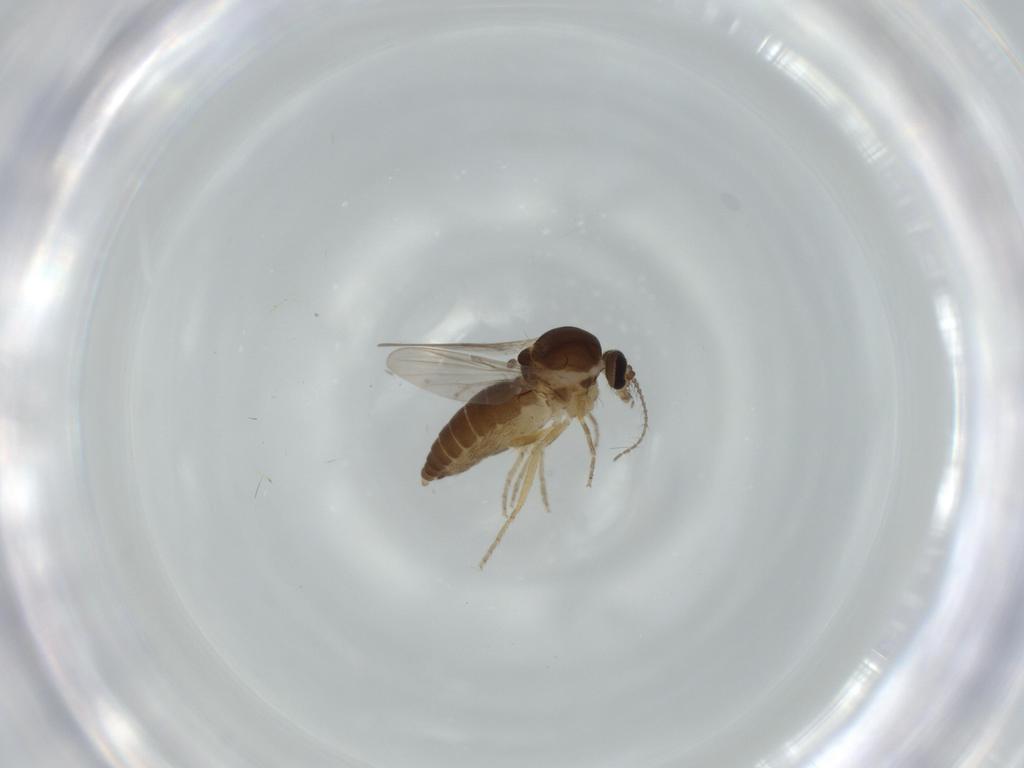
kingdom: Animalia
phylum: Arthropoda
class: Insecta
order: Diptera
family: Ceratopogonidae
